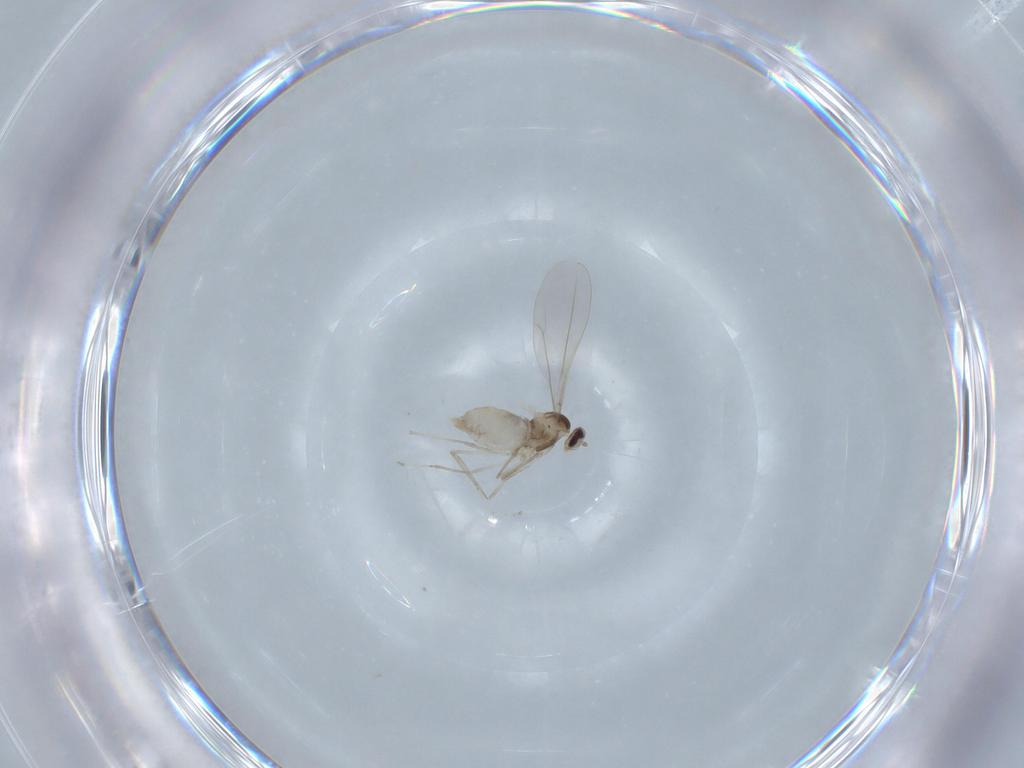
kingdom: Animalia
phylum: Arthropoda
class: Insecta
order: Diptera
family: Cecidomyiidae
